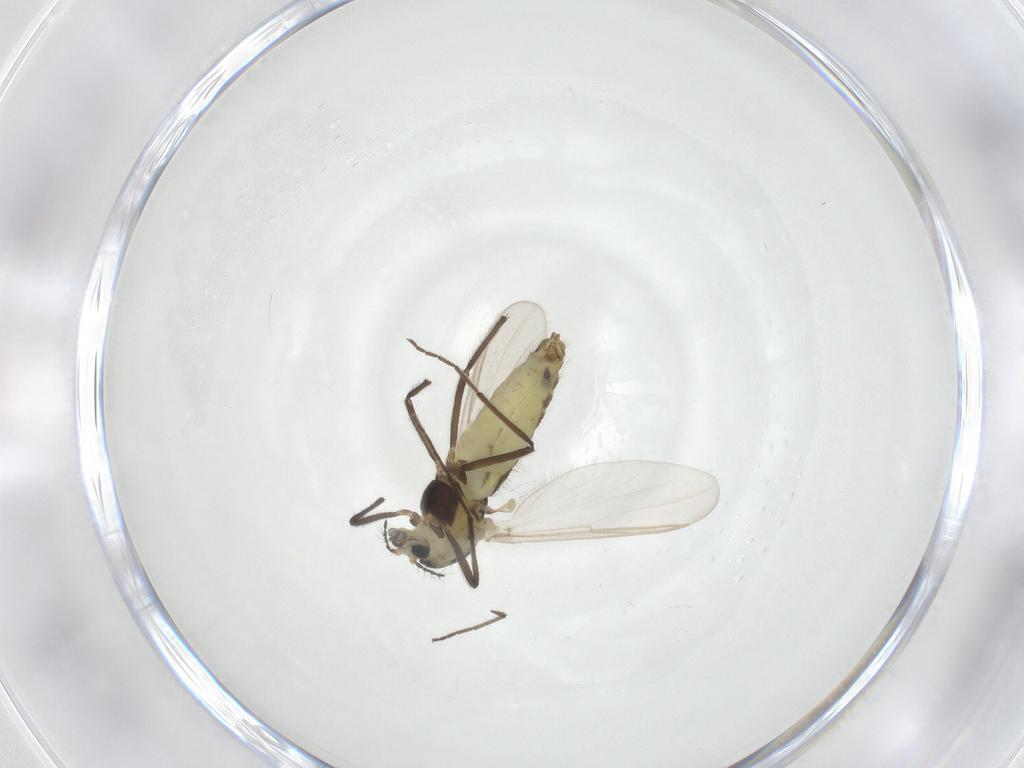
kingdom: Animalia
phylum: Arthropoda
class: Insecta
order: Diptera
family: Chironomidae
